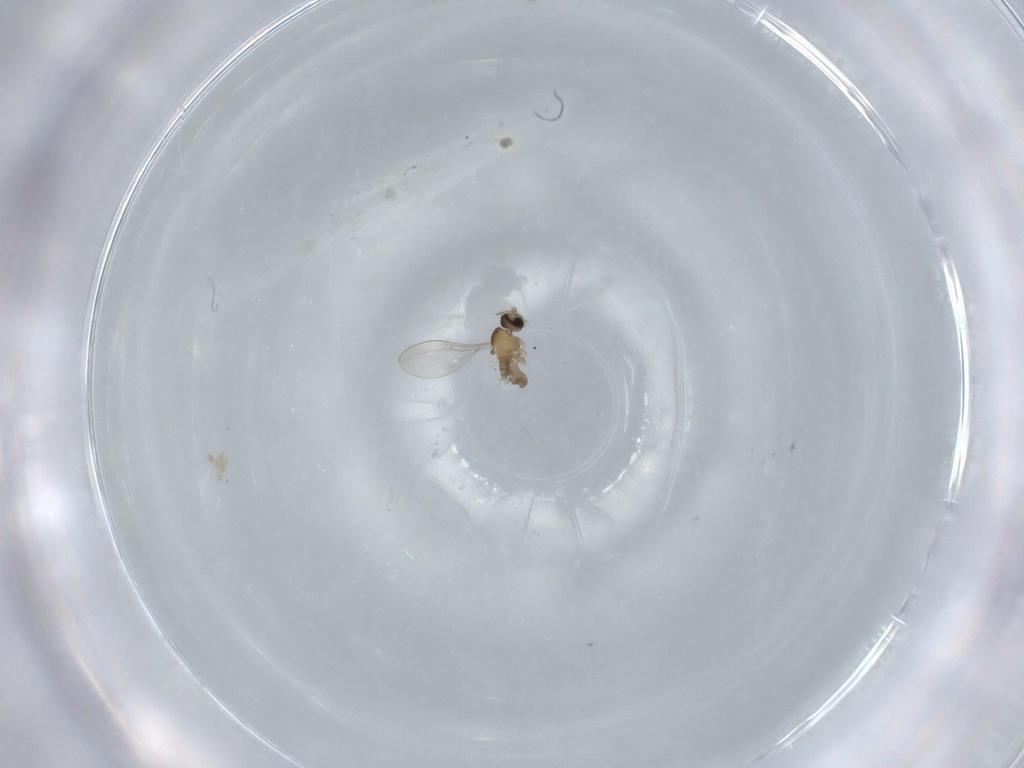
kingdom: Animalia
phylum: Arthropoda
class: Insecta
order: Diptera
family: Cecidomyiidae
